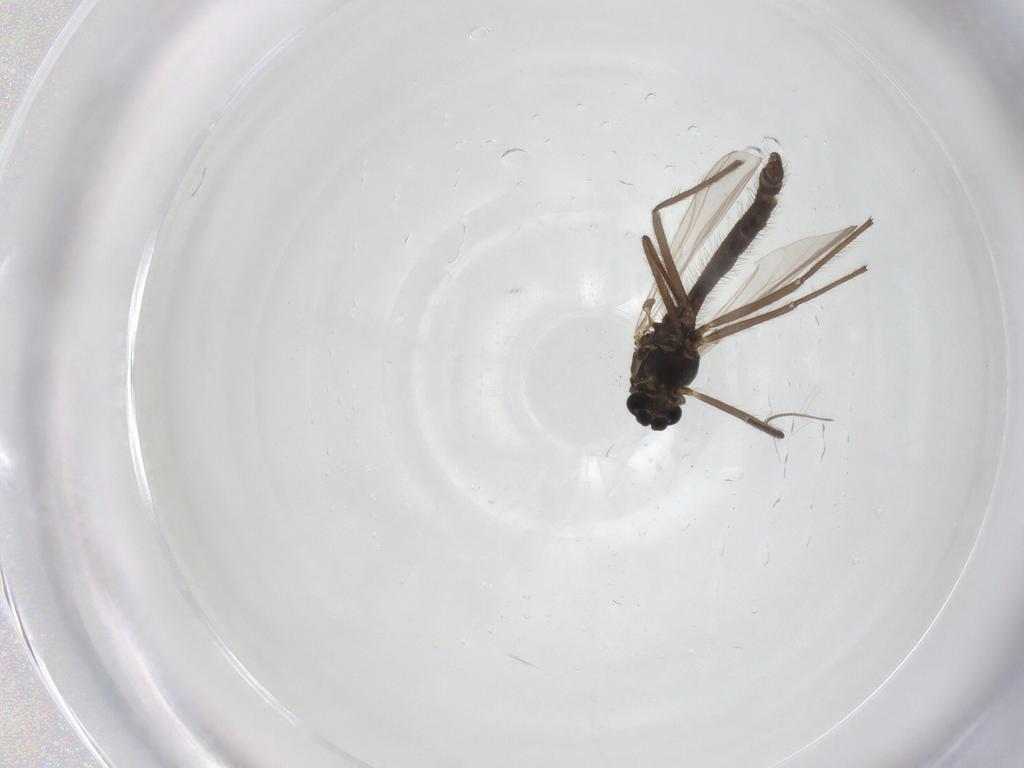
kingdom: Animalia
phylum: Arthropoda
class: Insecta
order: Diptera
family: Chironomidae
